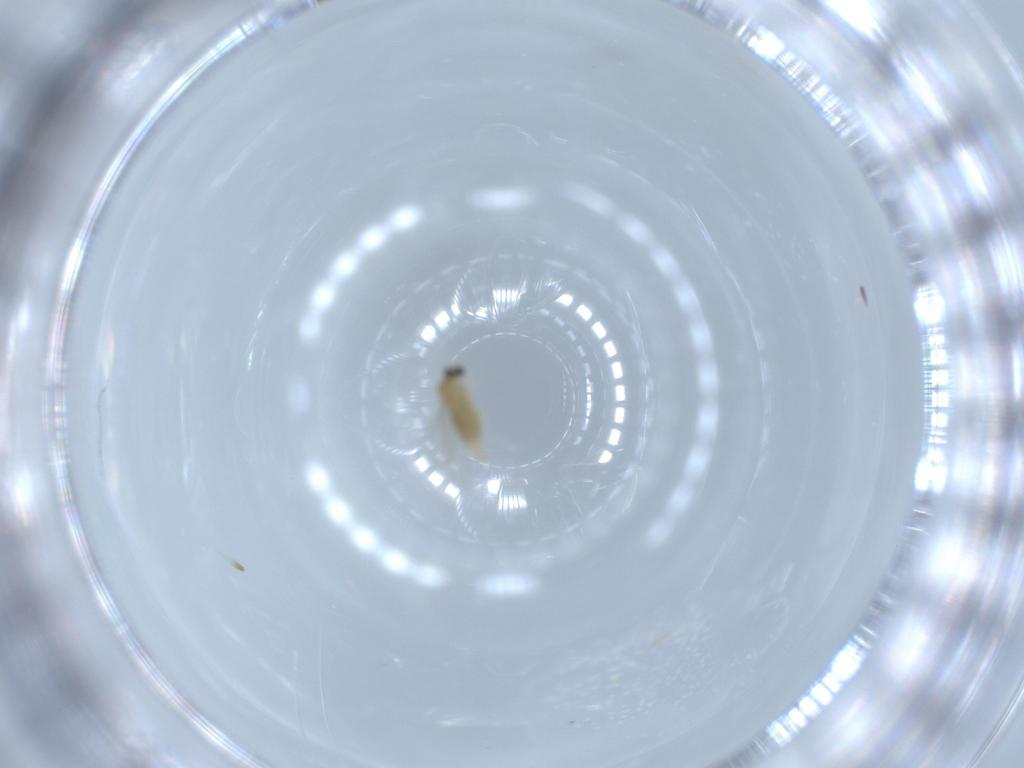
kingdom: Animalia
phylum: Arthropoda
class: Insecta
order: Diptera
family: Cecidomyiidae
